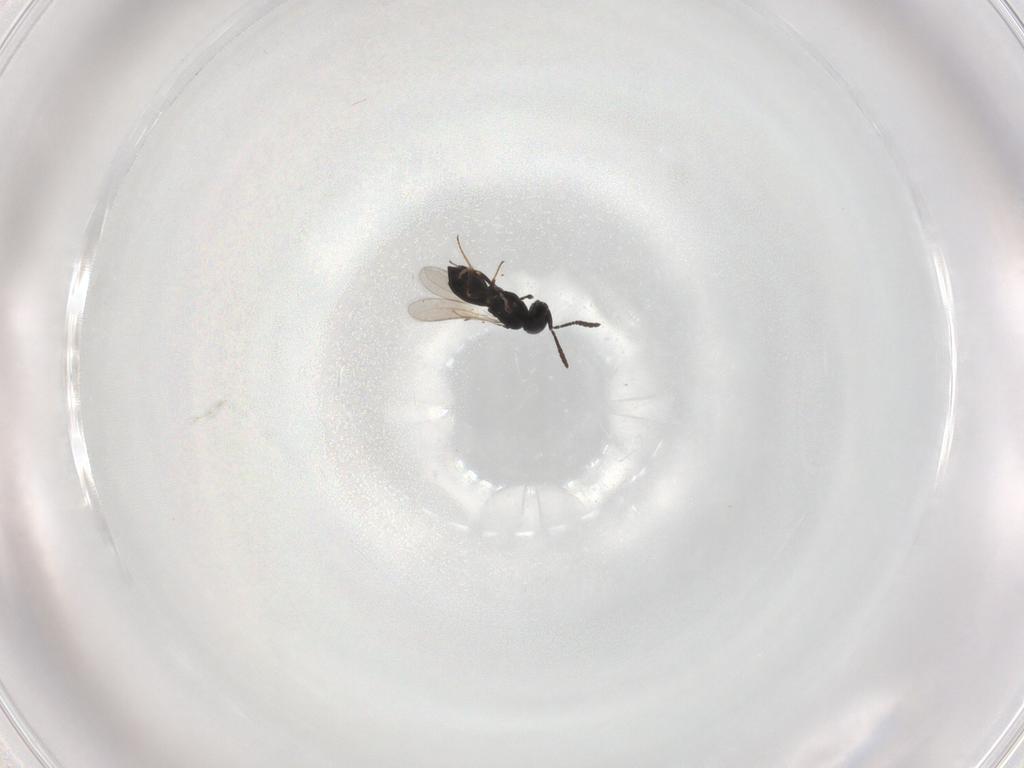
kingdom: Animalia
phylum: Arthropoda
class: Insecta
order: Hymenoptera
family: Scelionidae
